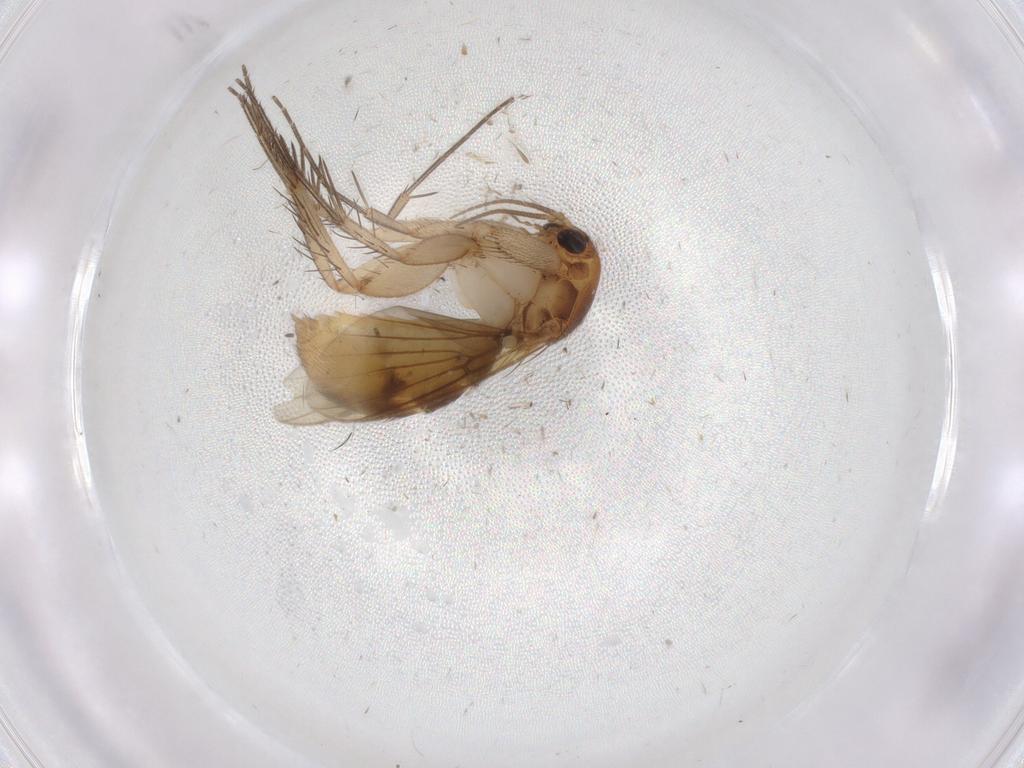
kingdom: Animalia
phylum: Arthropoda
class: Insecta
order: Diptera
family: Mycetophilidae
